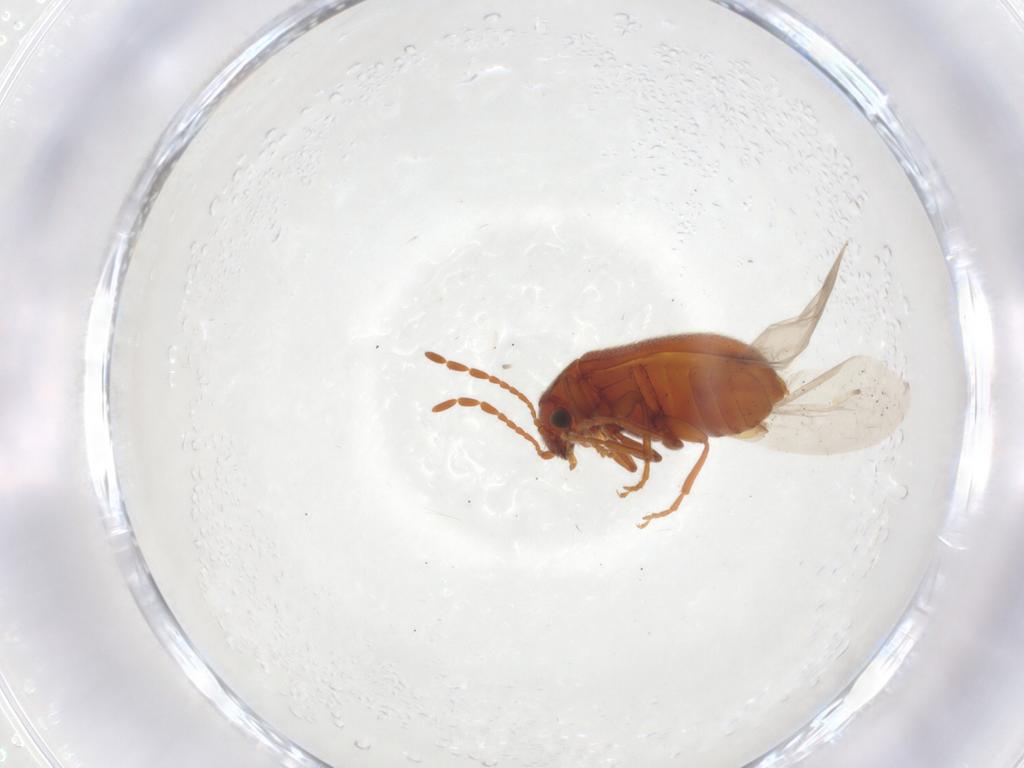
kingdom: Animalia
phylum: Arthropoda
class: Insecta
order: Coleoptera
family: Ptinidae
